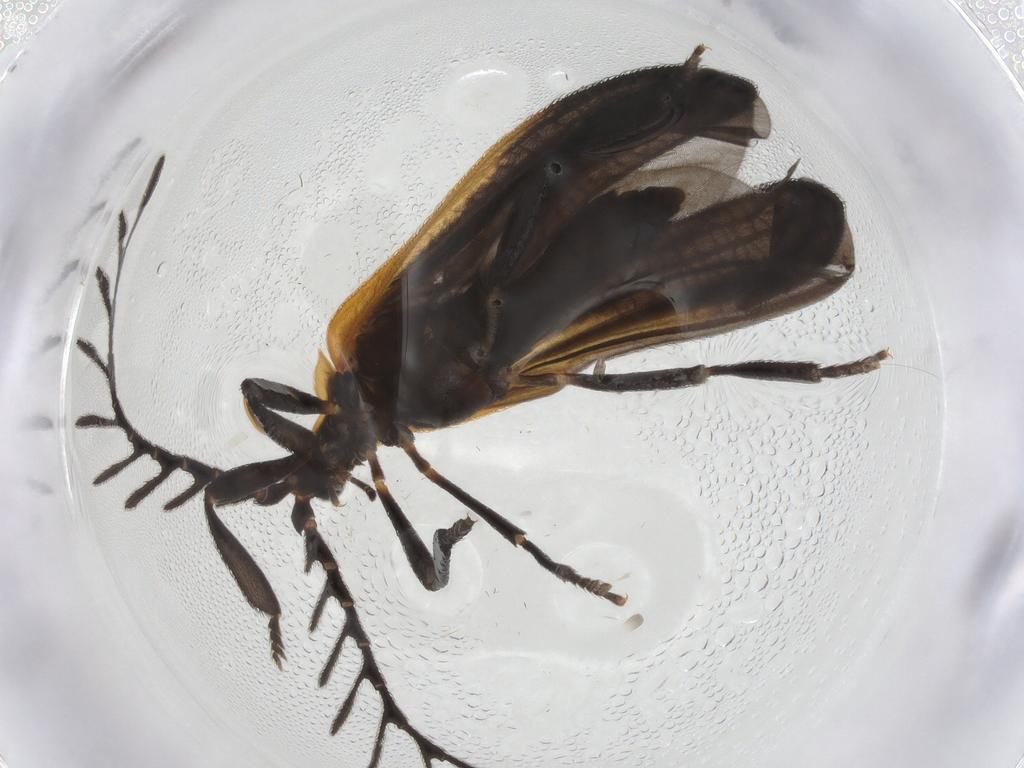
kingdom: Animalia
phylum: Arthropoda
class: Insecta
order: Coleoptera
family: Lycidae
